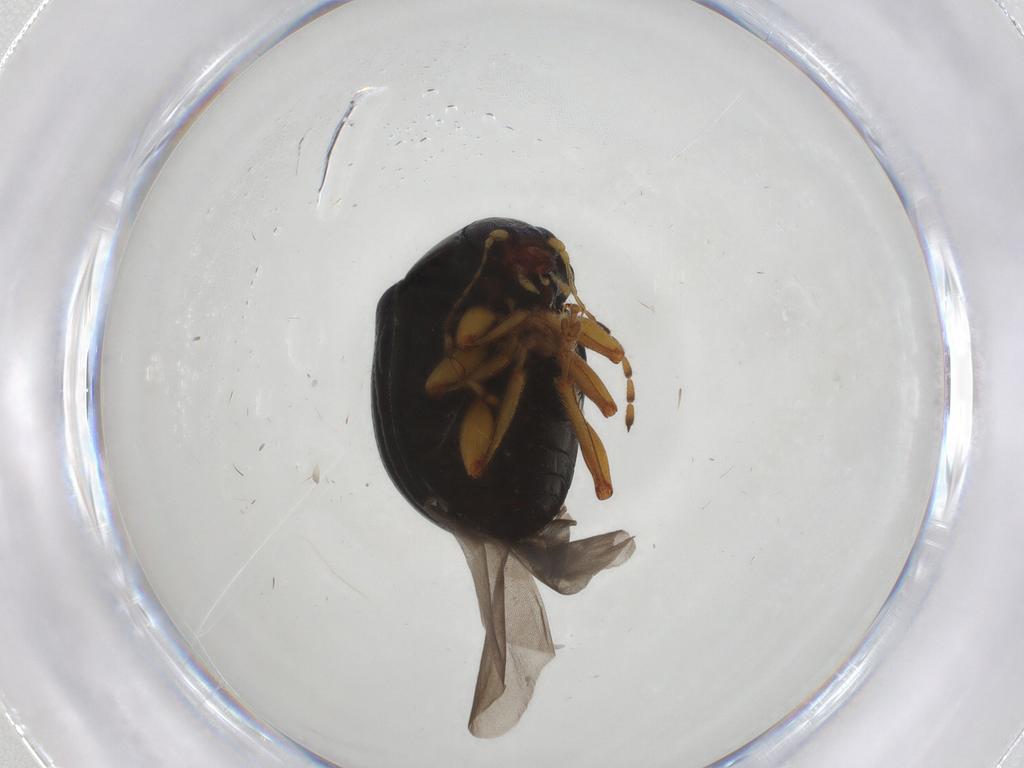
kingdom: Animalia
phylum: Arthropoda
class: Insecta
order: Coleoptera
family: Chrysomelidae
